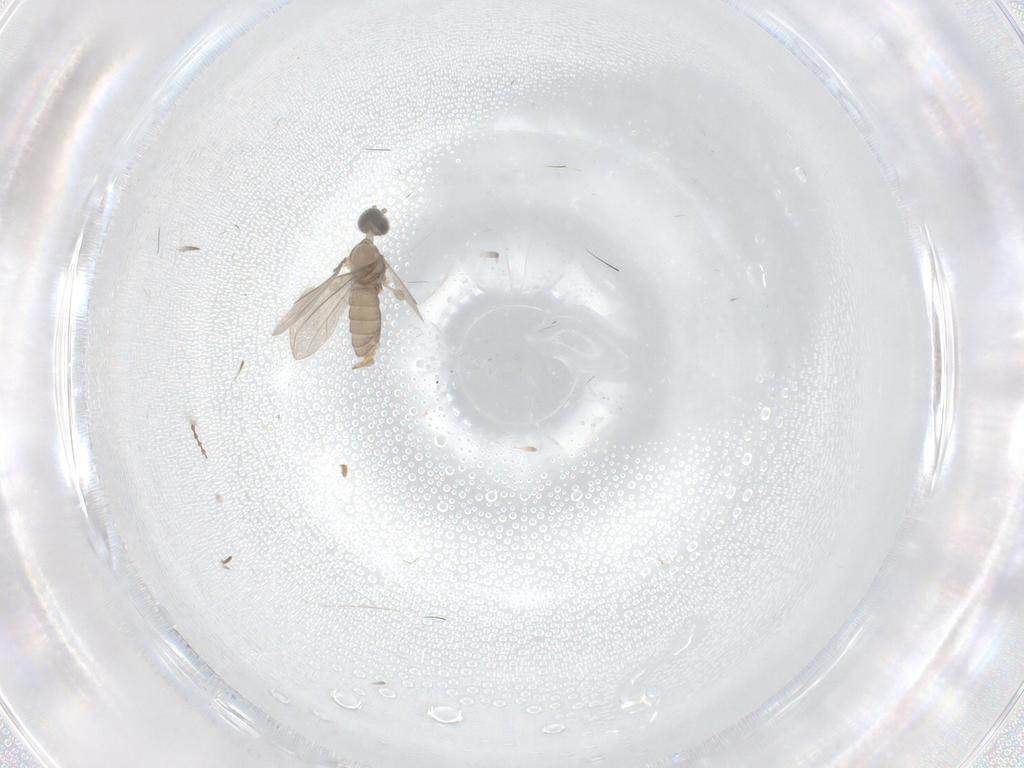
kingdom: Animalia
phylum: Arthropoda
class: Insecta
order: Diptera
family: Cecidomyiidae
